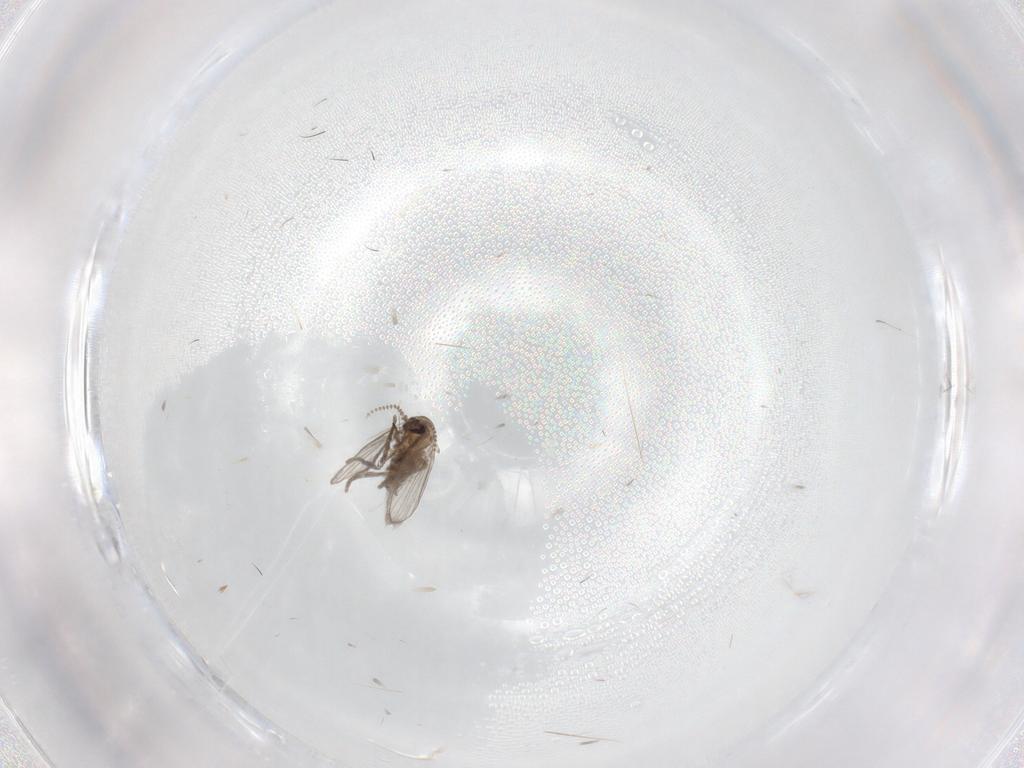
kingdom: Animalia
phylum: Arthropoda
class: Insecta
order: Diptera
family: Psychodidae
